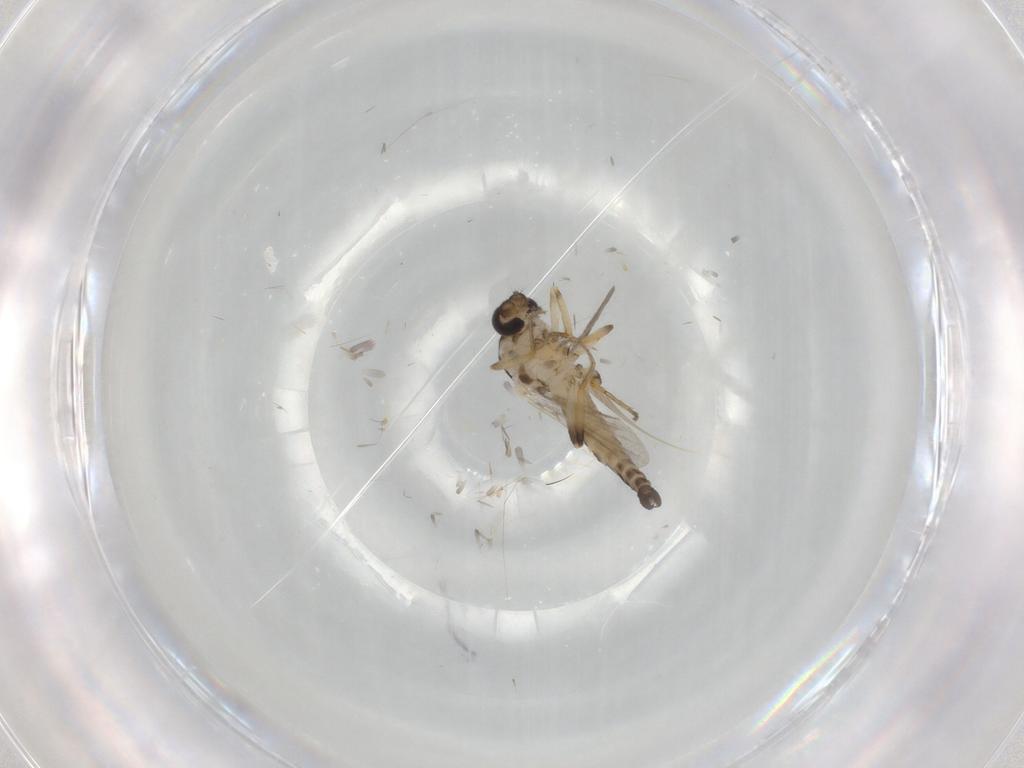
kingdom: Animalia
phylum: Arthropoda
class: Insecta
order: Diptera
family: Ceratopogonidae
